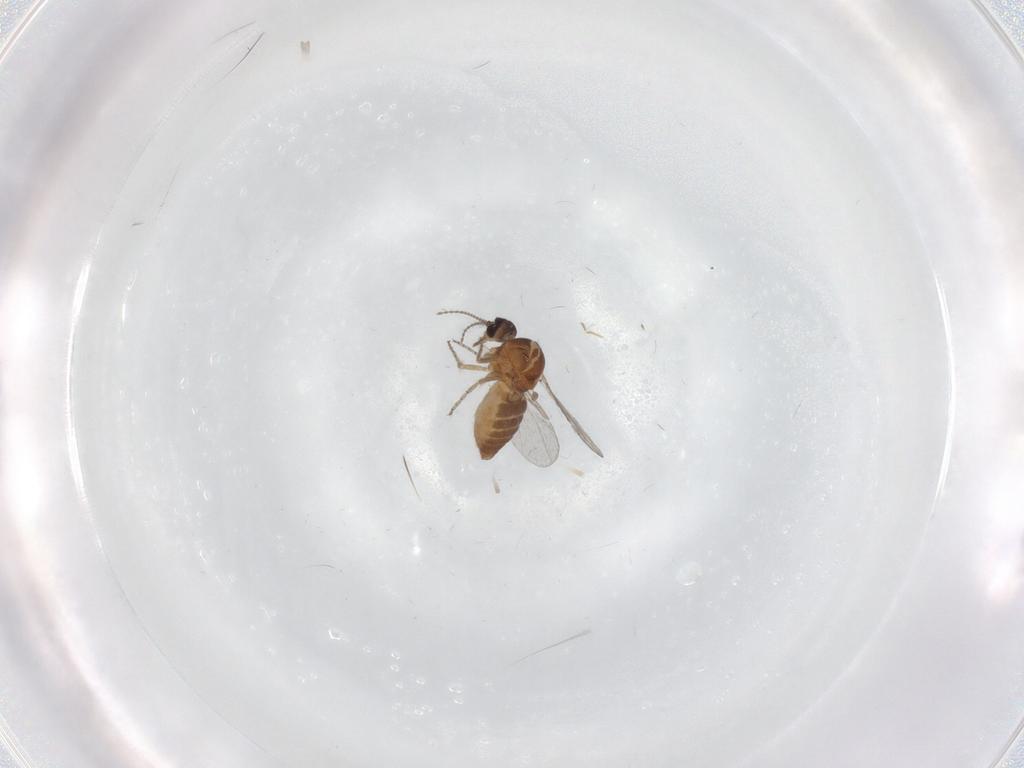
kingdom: Animalia
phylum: Arthropoda
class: Insecta
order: Diptera
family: Ceratopogonidae
